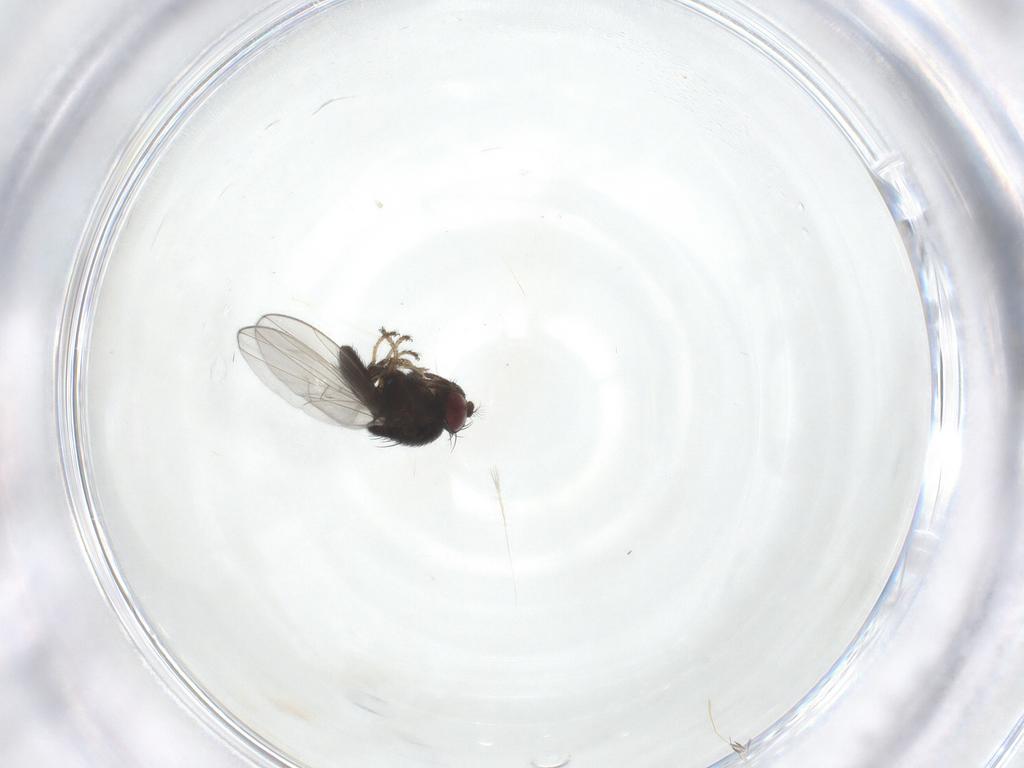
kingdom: Animalia
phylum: Arthropoda
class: Insecta
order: Diptera
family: Ephydridae
